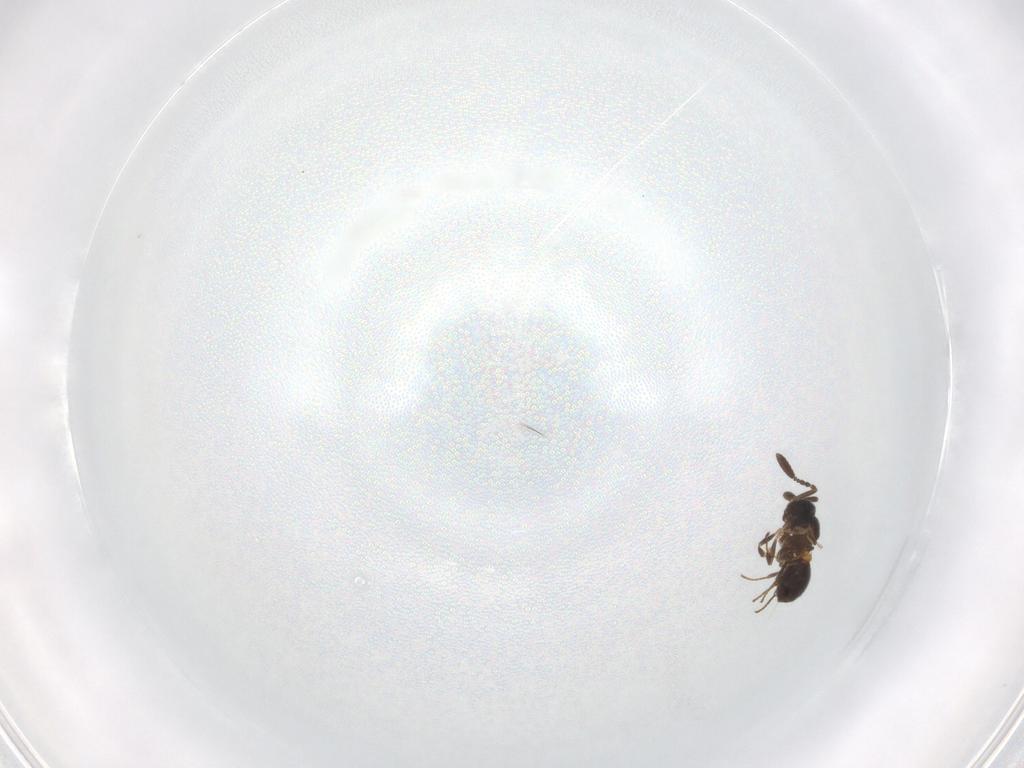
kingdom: Animalia
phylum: Arthropoda
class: Insecta
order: Hymenoptera
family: Scelionidae
